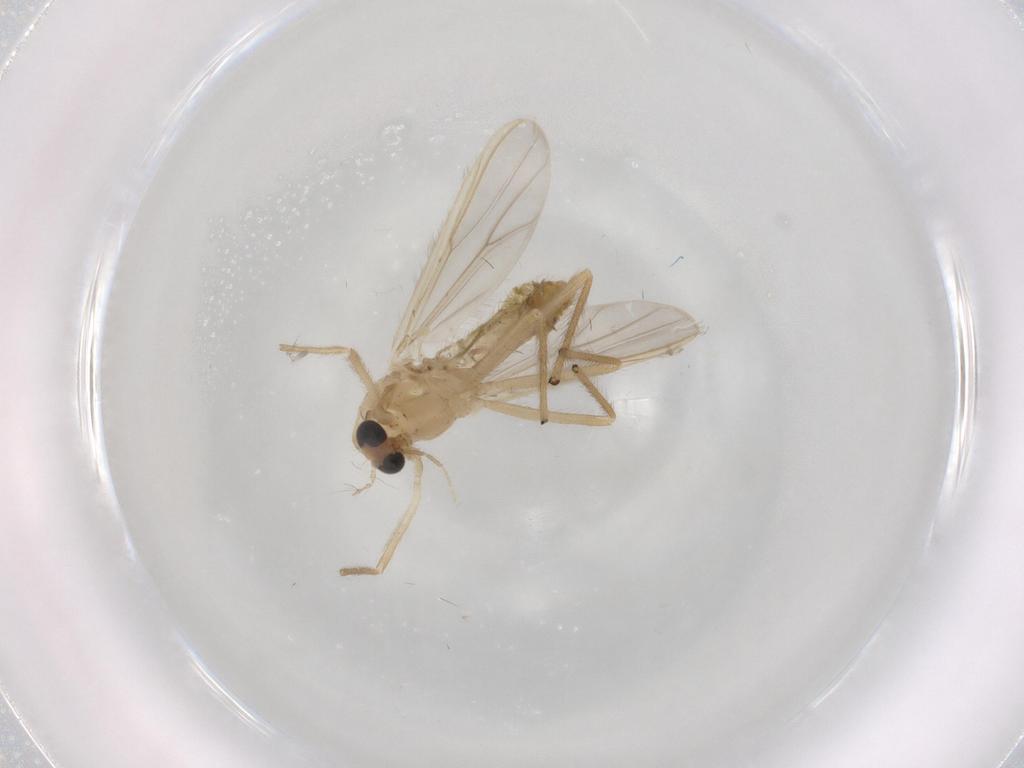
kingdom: Animalia
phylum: Arthropoda
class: Insecta
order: Diptera
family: Chironomidae
